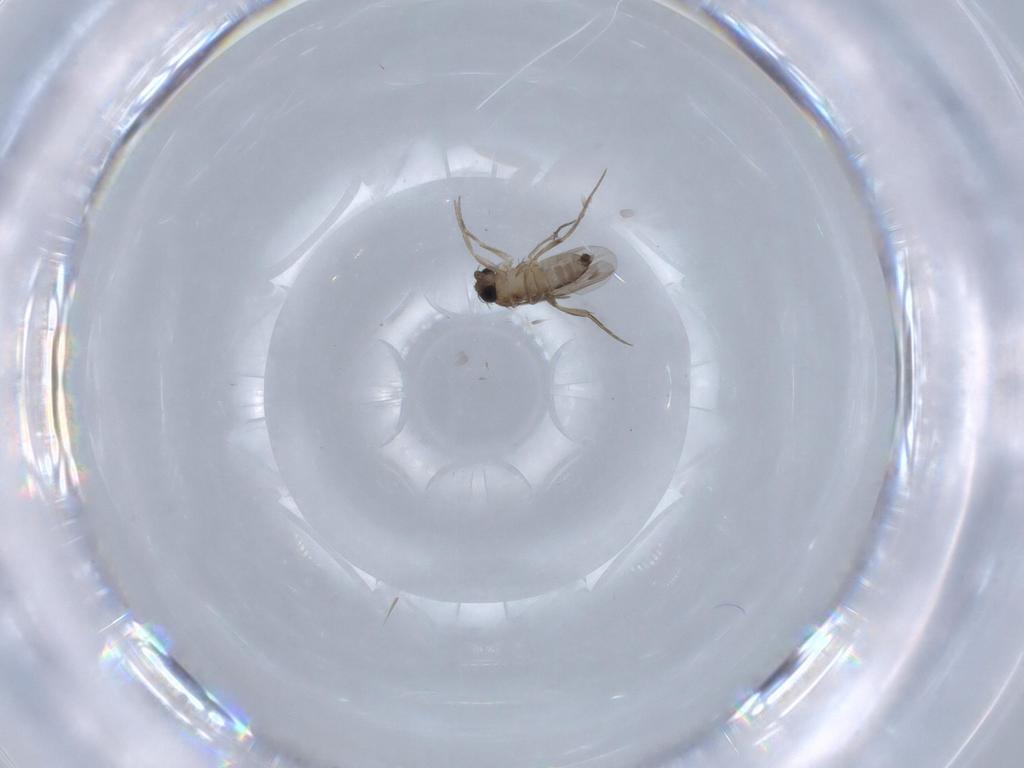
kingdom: Animalia
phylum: Arthropoda
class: Insecta
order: Diptera
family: Phoridae
